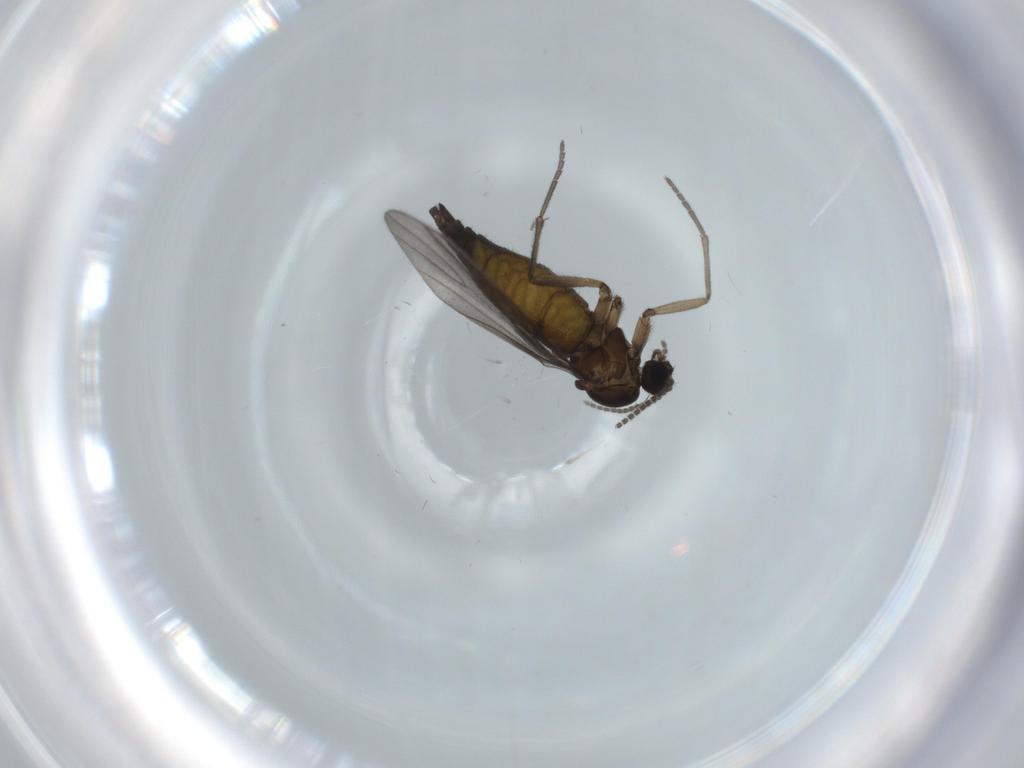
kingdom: Animalia
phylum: Arthropoda
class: Insecta
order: Diptera
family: Sciaridae
